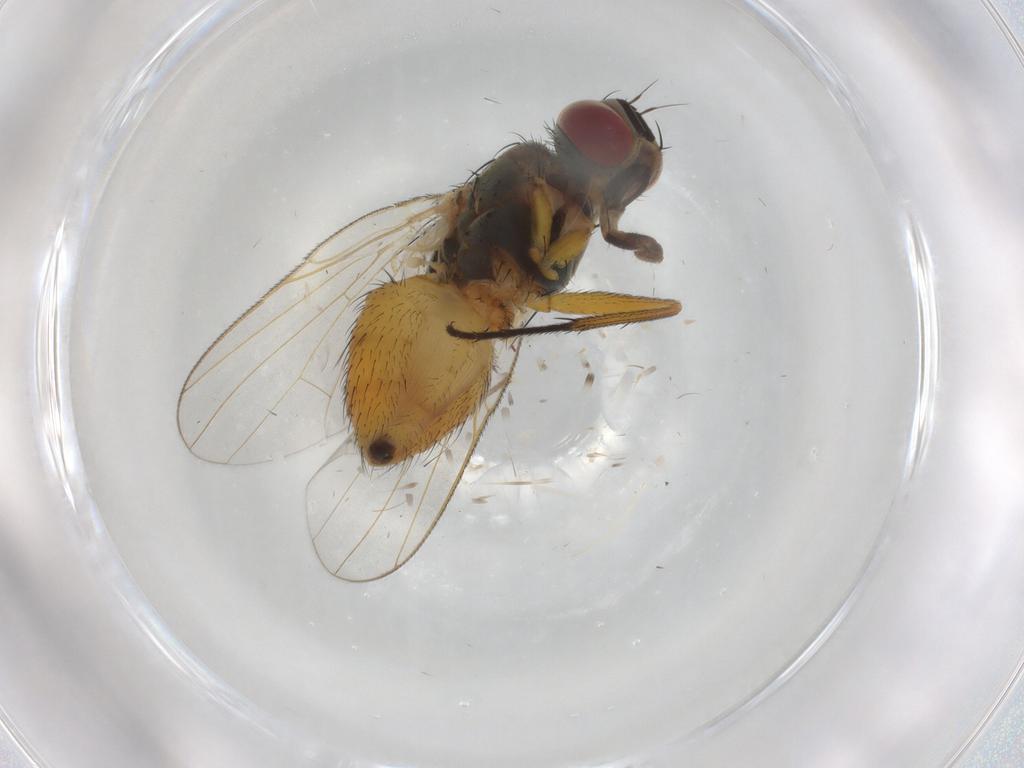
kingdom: Animalia
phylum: Arthropoda
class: Insecta
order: Diptera
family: Muscidae
